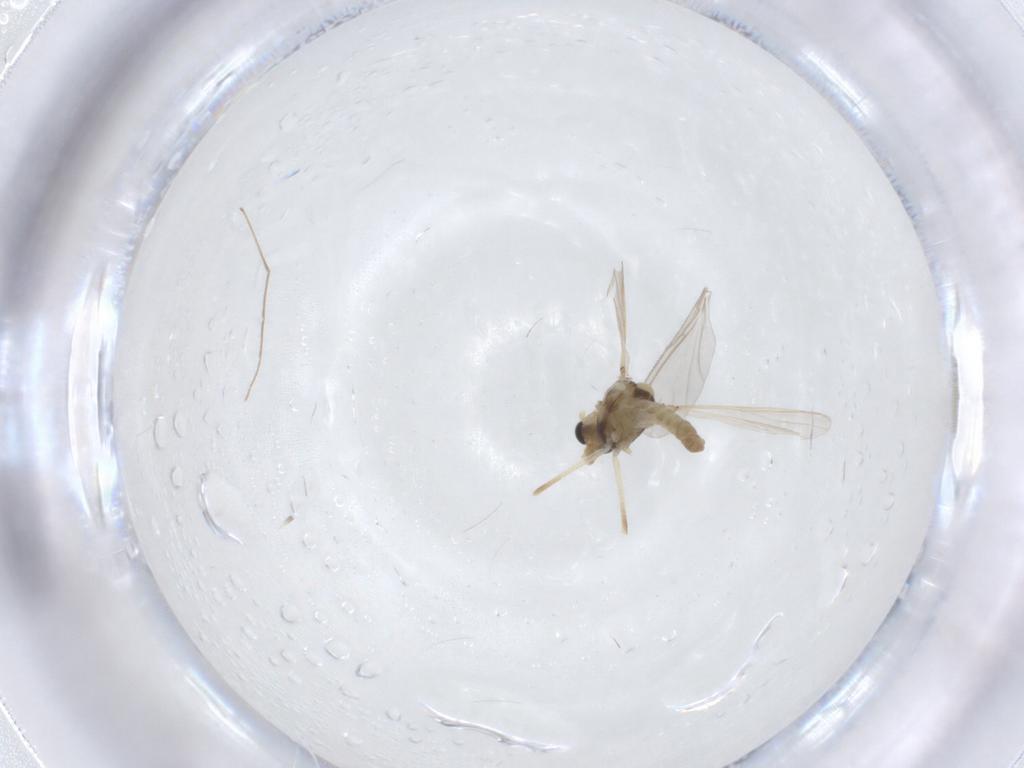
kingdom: Animalia
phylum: Arthropoda
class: Insecta
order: Diptera
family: Chironomidae
